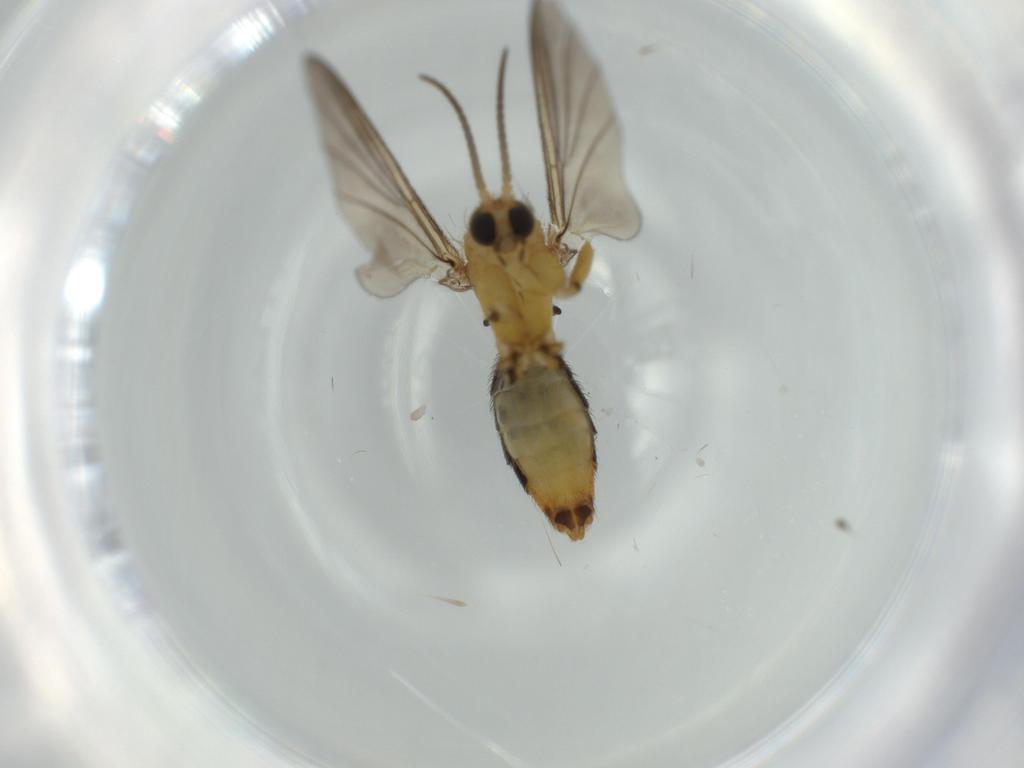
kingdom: Animalia
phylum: Arthropoda
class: Insecta
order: Diptera
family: Mycetophilidae
